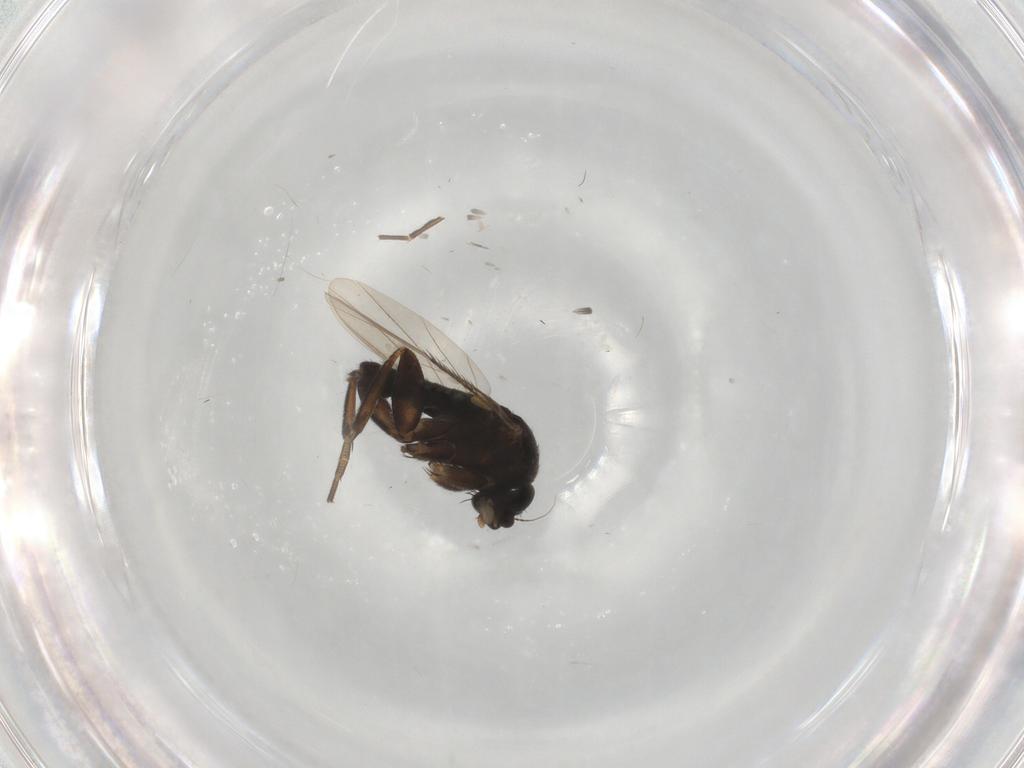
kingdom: Animalia
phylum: Arthropoda
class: Insecta
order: Diptera
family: Phoridae
